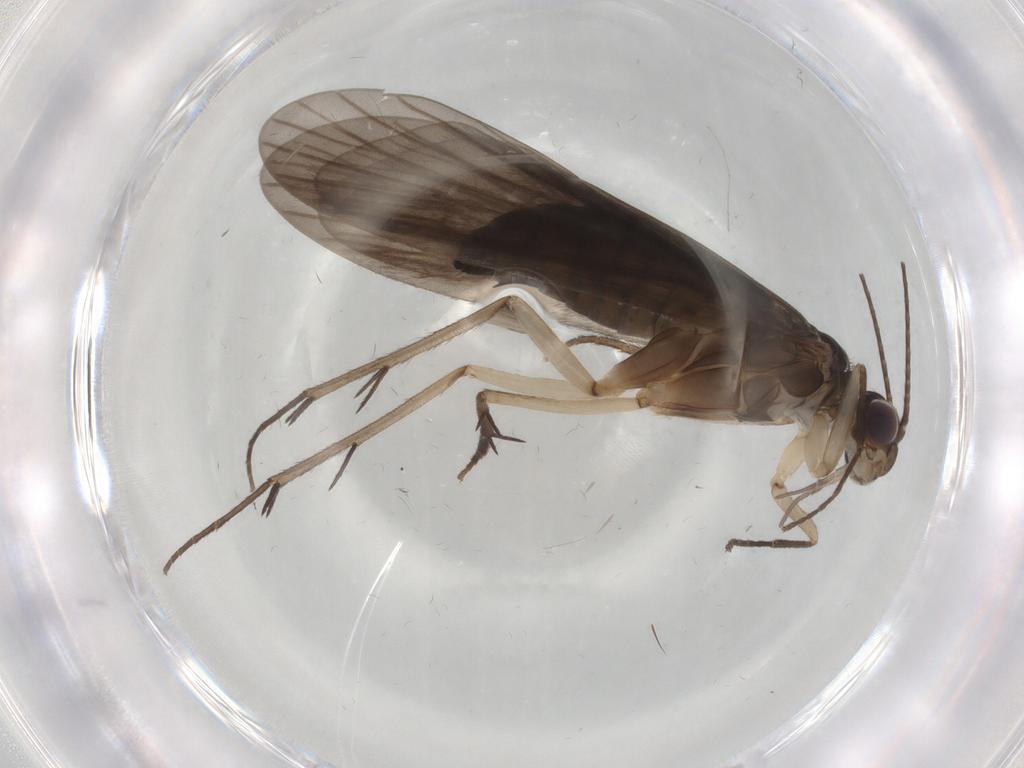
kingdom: Animalia
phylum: Arthropoda
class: Insecta
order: Trichoptera
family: Philopotamidae
